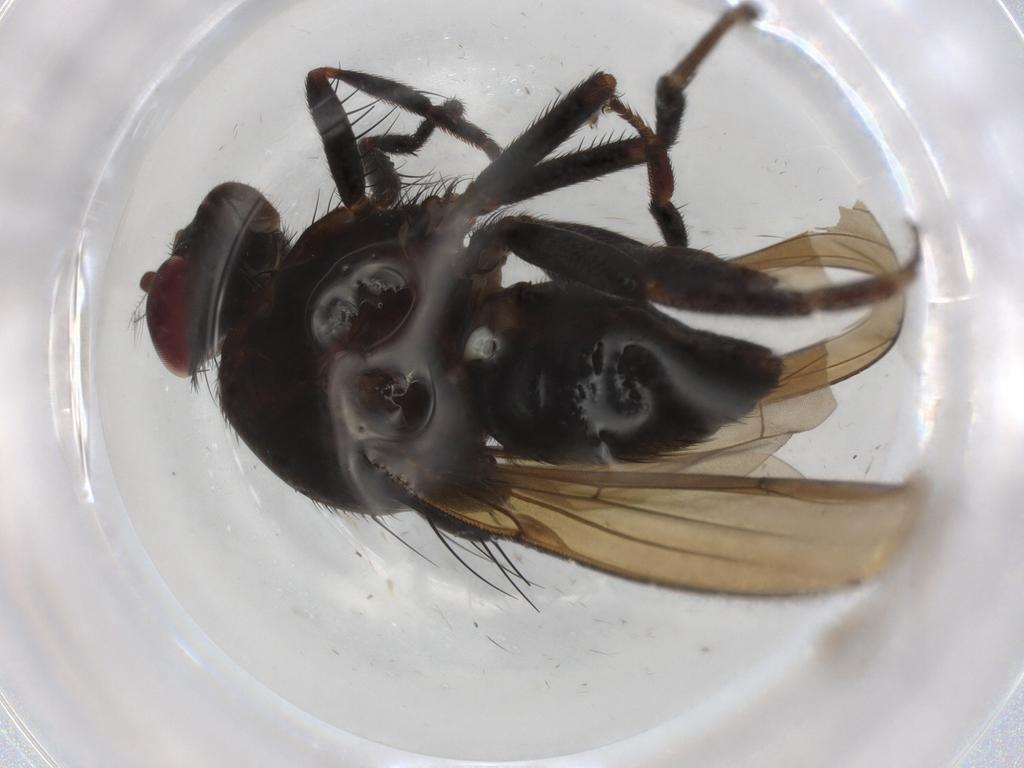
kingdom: Animalia
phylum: Arthropoda
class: Insecta
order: Diptera
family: Lauxaniidae
